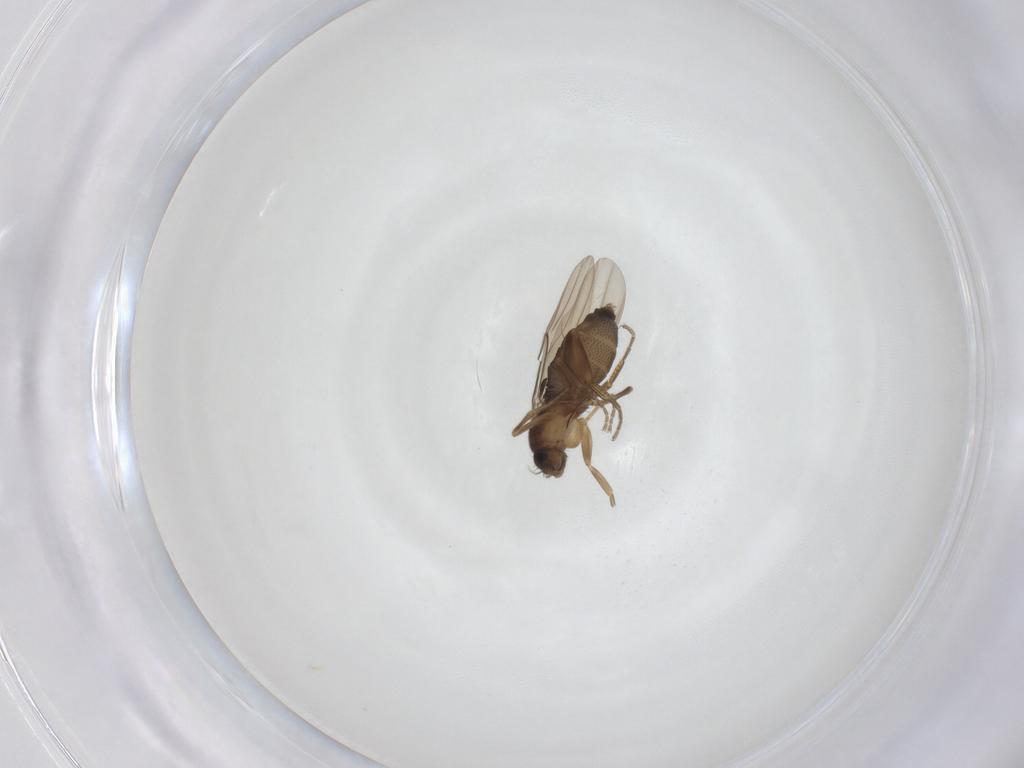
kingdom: Animalia
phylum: Arthropoda
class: Insecta
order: Diptera
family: Phoridae
